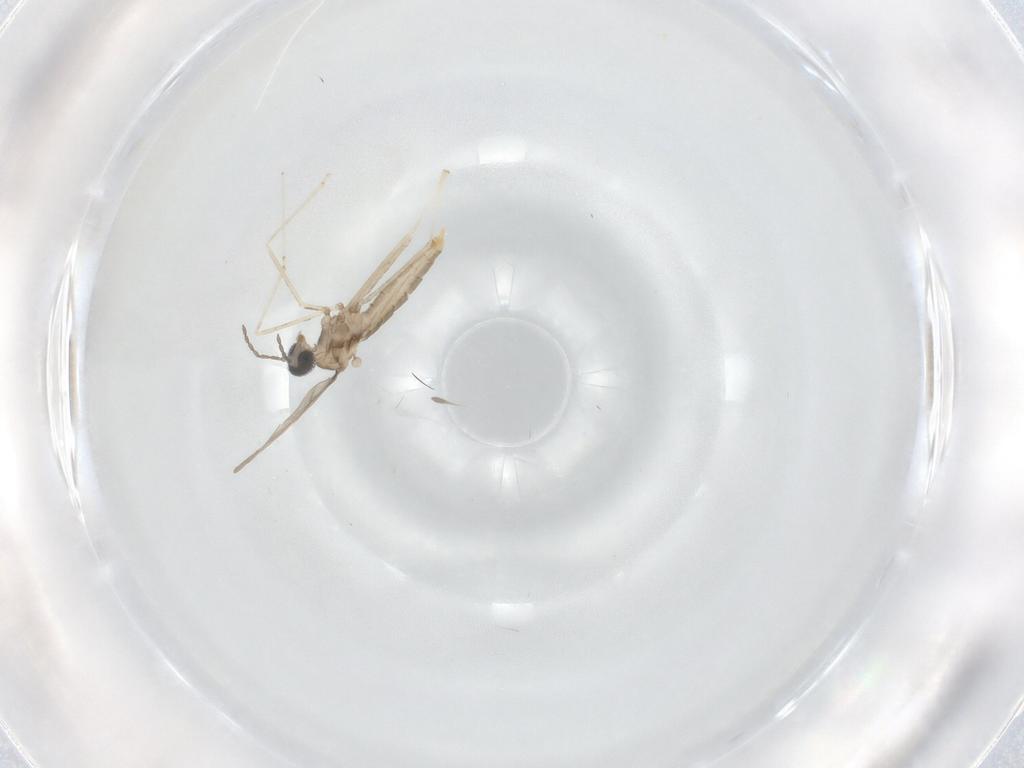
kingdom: Animalia
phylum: Arthropoda
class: Insecta
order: Diptera
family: Cecidomyiidae
